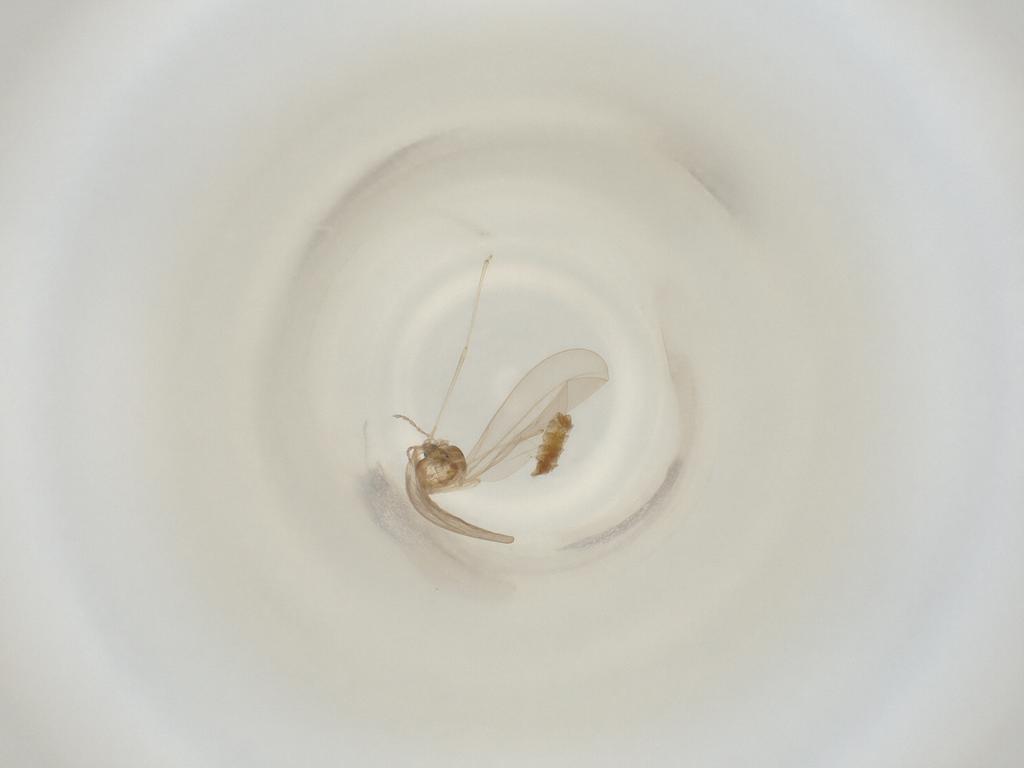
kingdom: Animalia
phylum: Arthropoda
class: Insecta
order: Diptera
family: Cecidomyiidae
